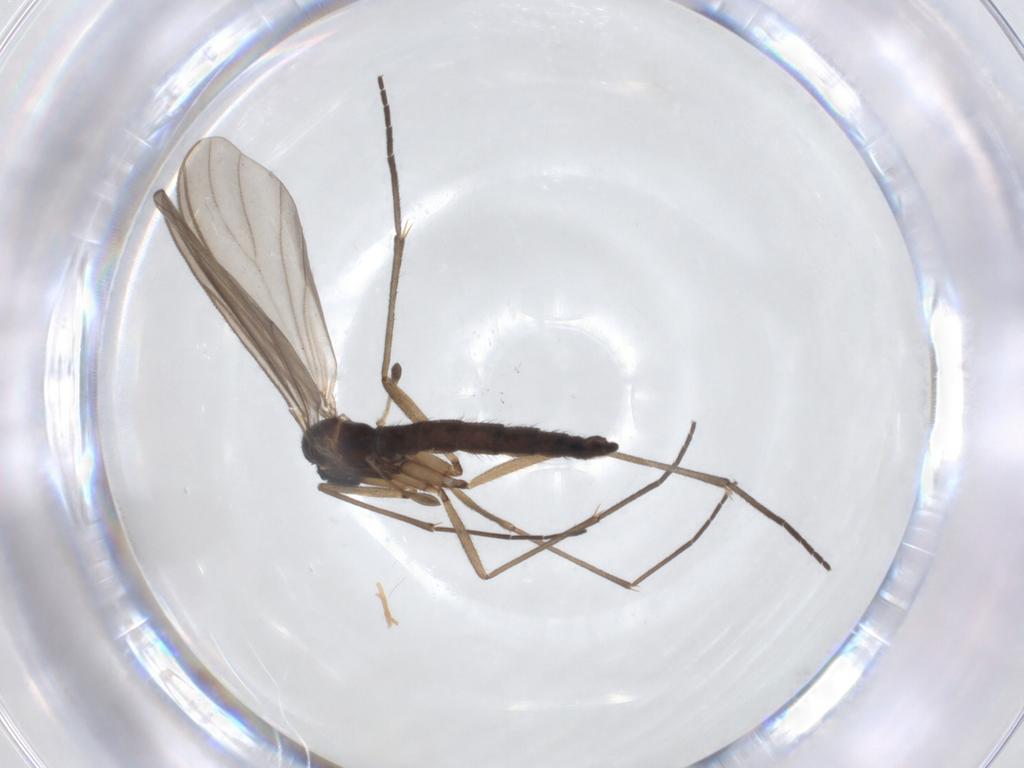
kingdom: Animalia
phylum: Arthropoda
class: Insecta
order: Diptera
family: Sciaridae
